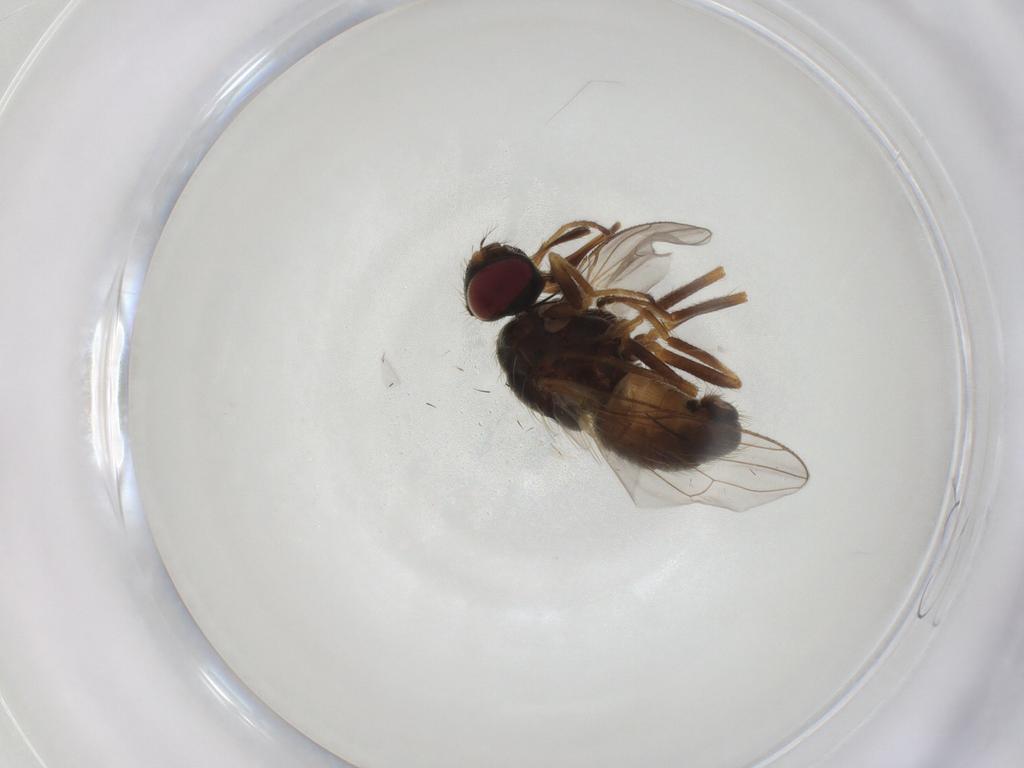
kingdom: Animalia
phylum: Arthropoda
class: Insecta
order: Diptera
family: Muscidae
